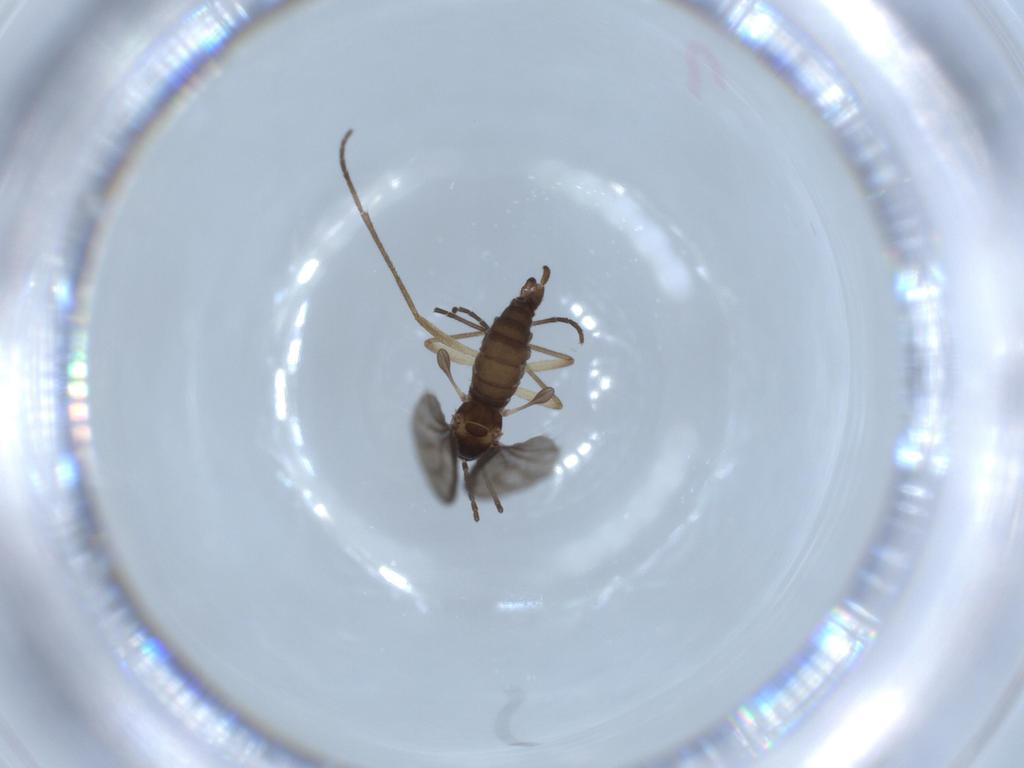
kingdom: Animalia
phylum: Arthropoda
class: Insecta
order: Diptera
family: Sciaridae
